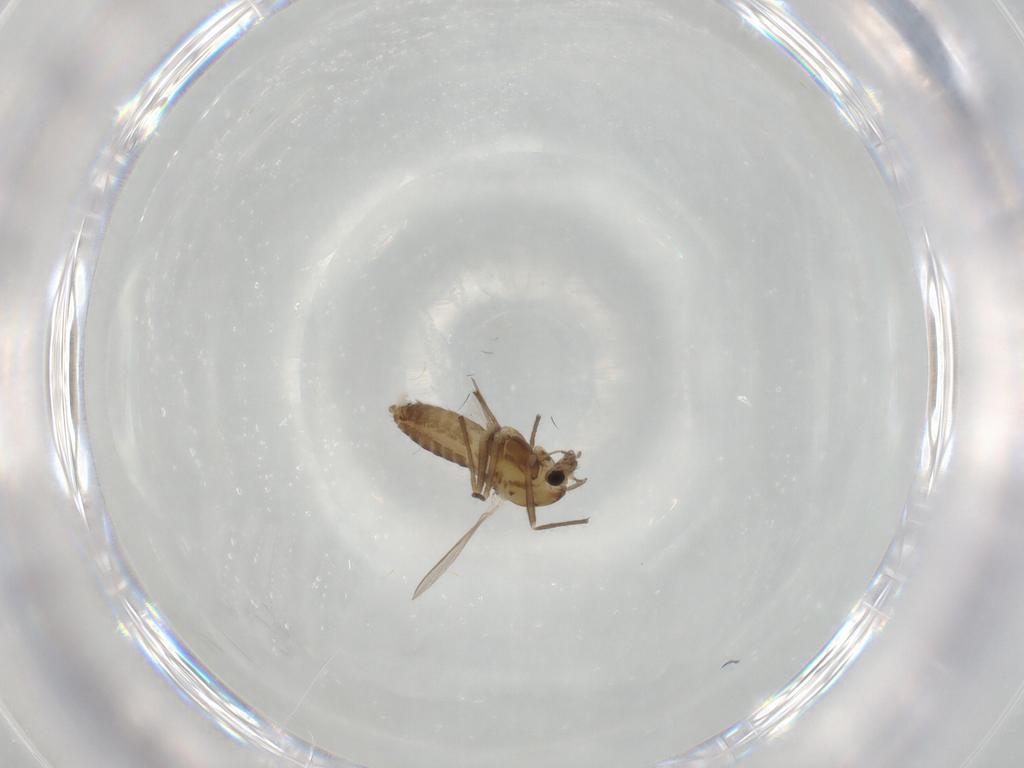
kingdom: Animalia
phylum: Arthropoda
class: Insecta
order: Diptera
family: Chironomidae
